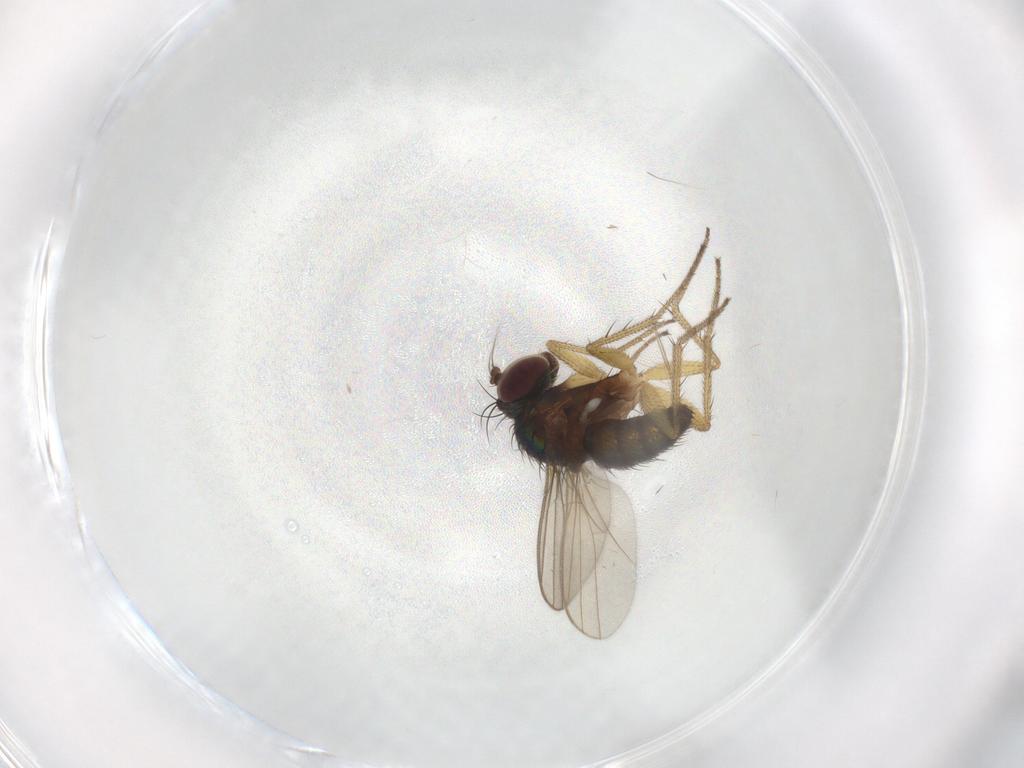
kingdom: Animalia
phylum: Arthropoda
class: Insecta
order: Diptera
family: Dolichopodidae
